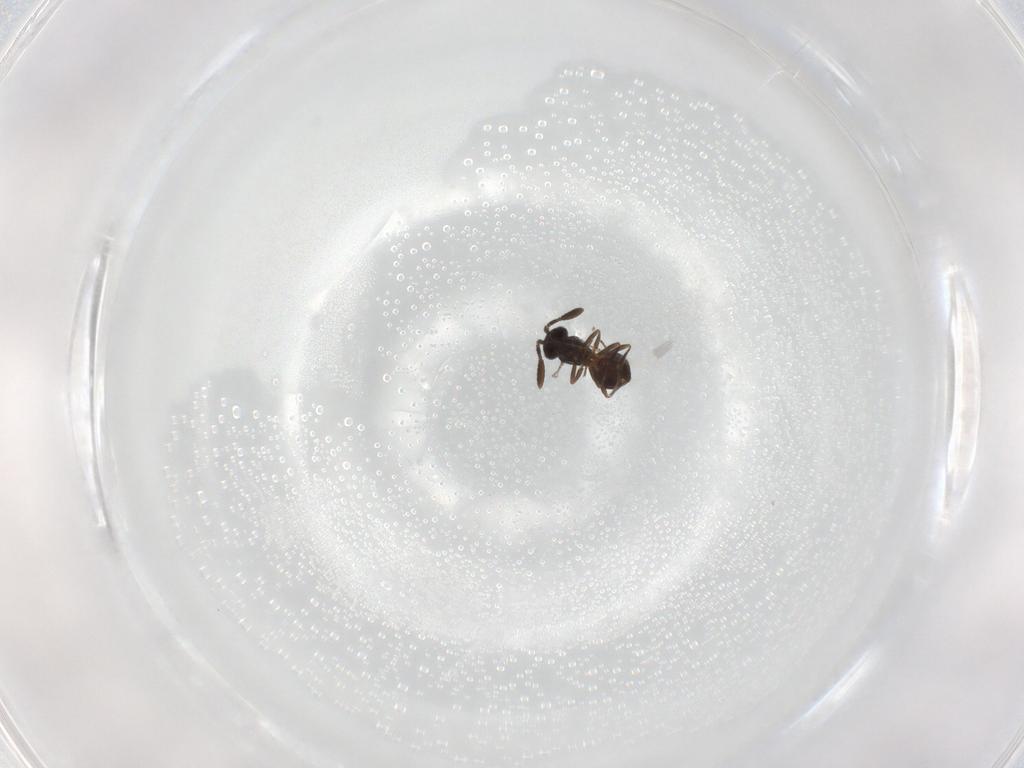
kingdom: Animalia
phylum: Arthropoda
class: Insecta
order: Hymenoptera
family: Scelionidae
